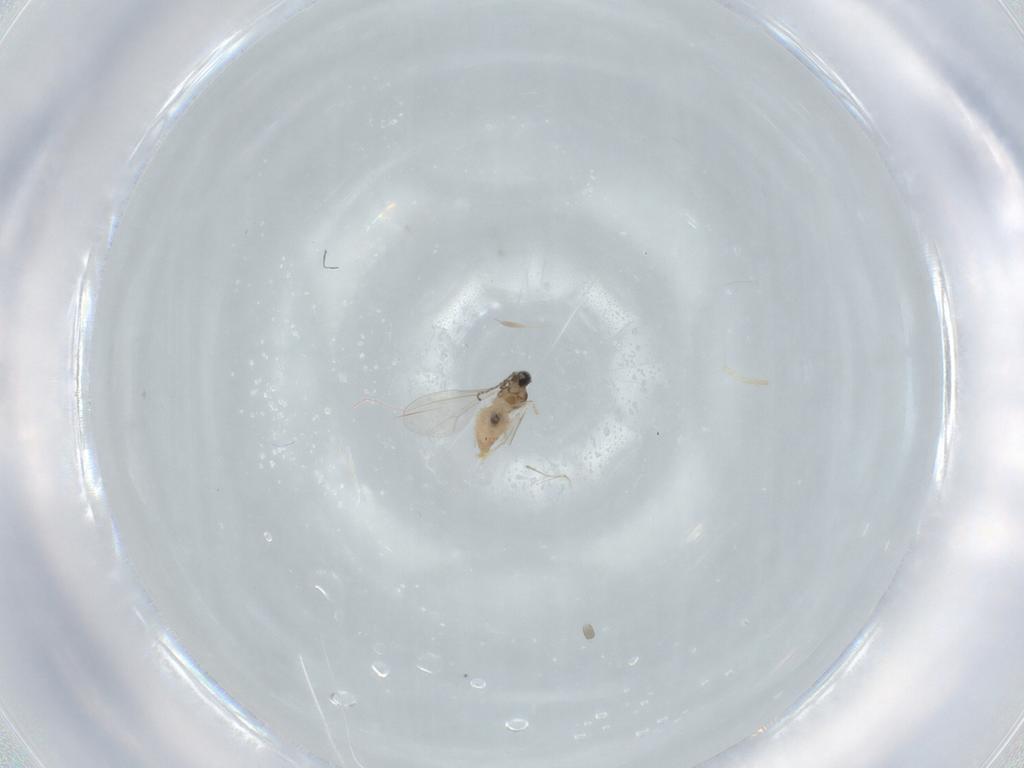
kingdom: Animalia
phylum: Arthropoda
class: Insecta
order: Diptera
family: Cecidomyiidae
